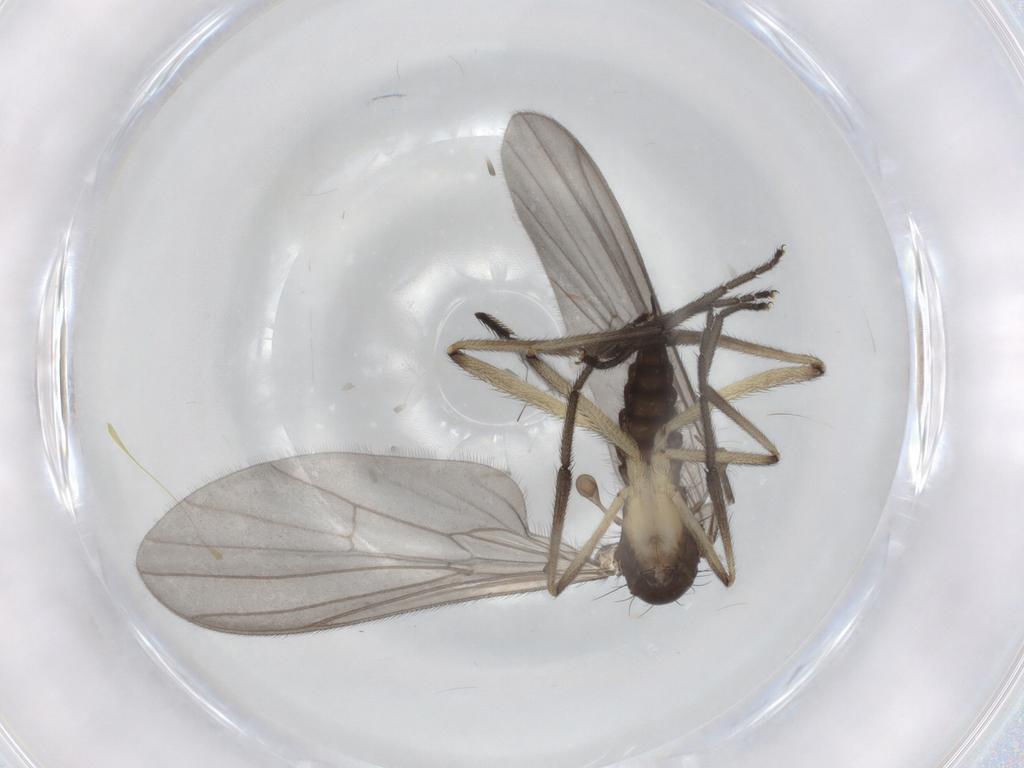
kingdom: Animalia
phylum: Arthropoda
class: Insecta
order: Diptera
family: Empididae
